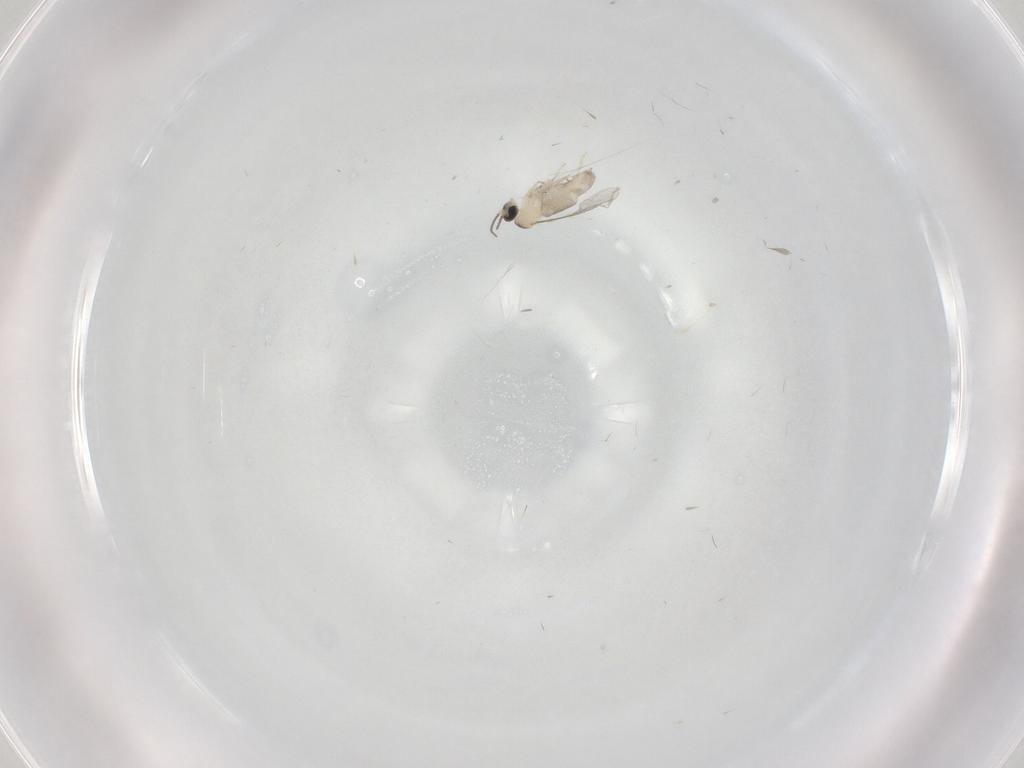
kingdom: Animalia
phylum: Arthropoda
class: Insecta
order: Diptera
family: Cecidomyiidae
